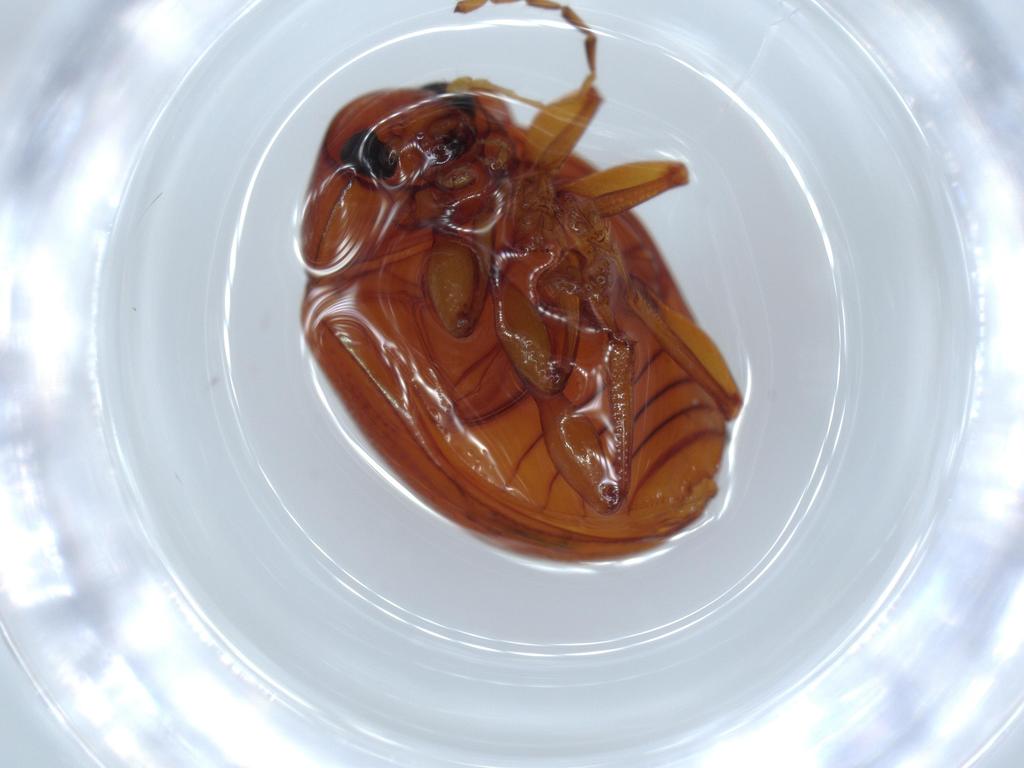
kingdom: Animalia
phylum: Arthropoda
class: Insecta
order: Coleoptera
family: Chrysomelidae
